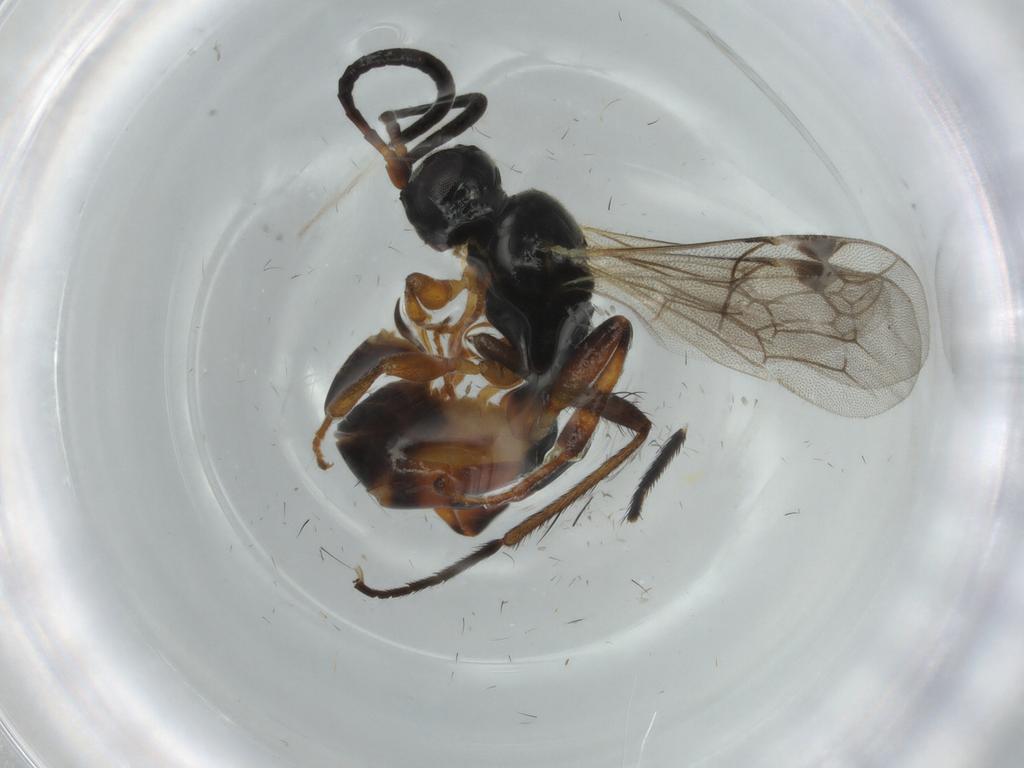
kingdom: Animalia
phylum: Arthropoda
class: Insecta
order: Hymenoptera
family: Ichneumonidae
